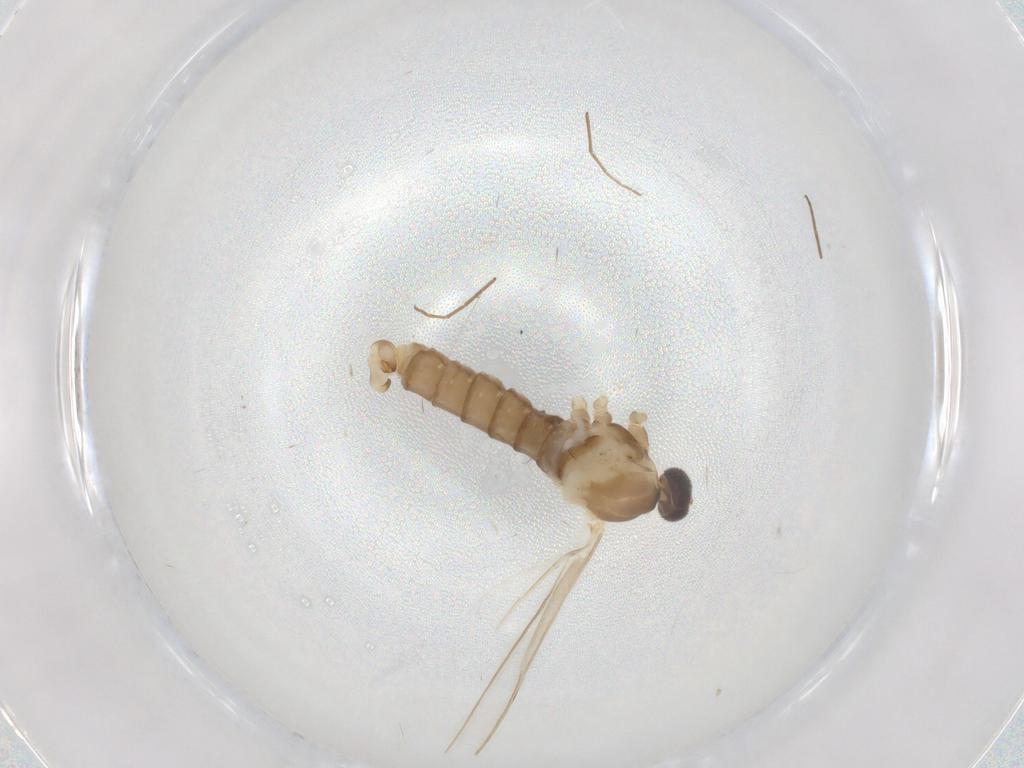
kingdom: Animalia
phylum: Arthropoda
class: Insecta
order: Diptera
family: Cecidomyiidae
